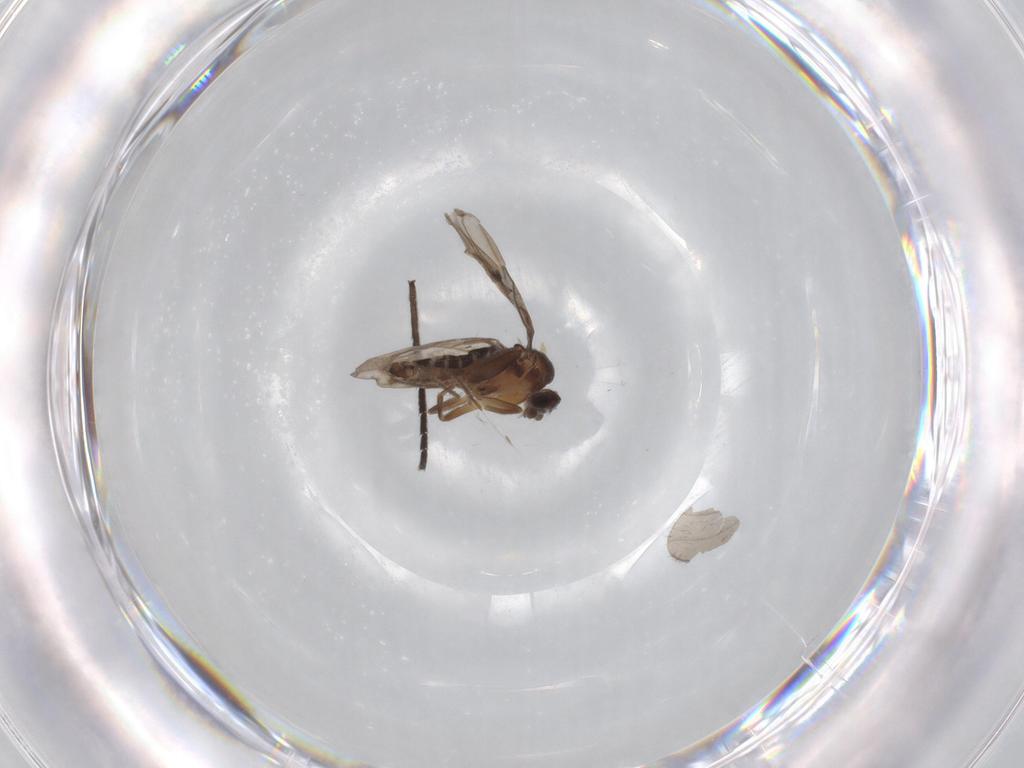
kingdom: Animalia
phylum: Arthropoda
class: Insecta
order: Diptera
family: Sciaridae
